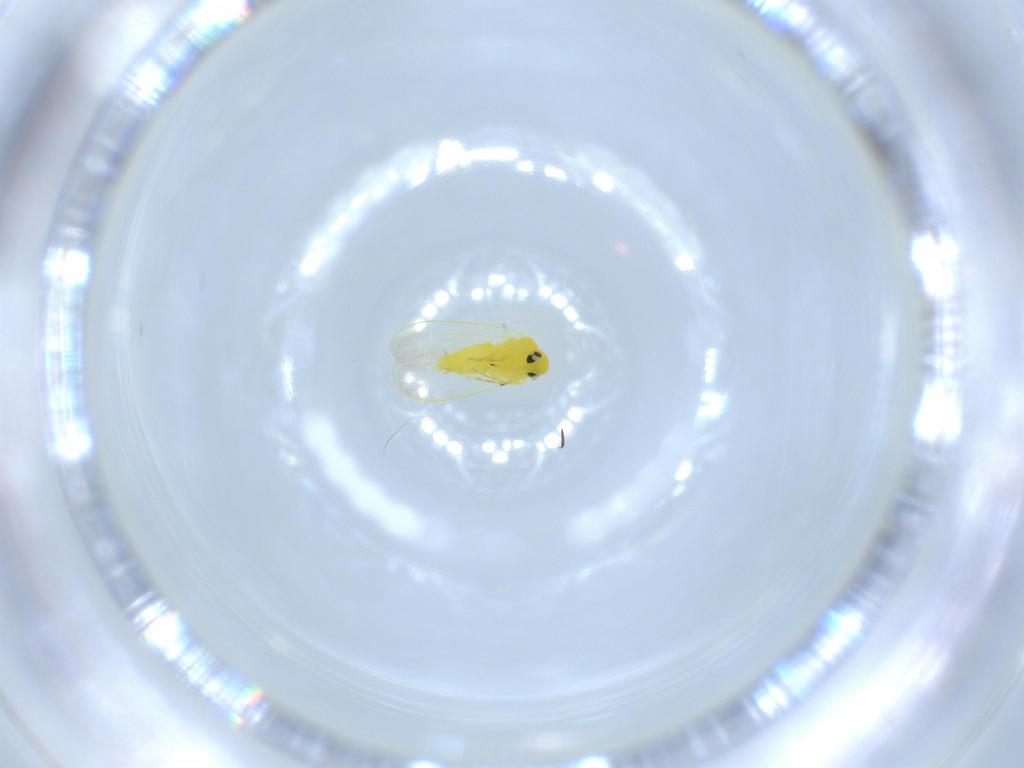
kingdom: Animalia
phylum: Arthropoda
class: Insecta
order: Hemiptera
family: Aleyrodidae
